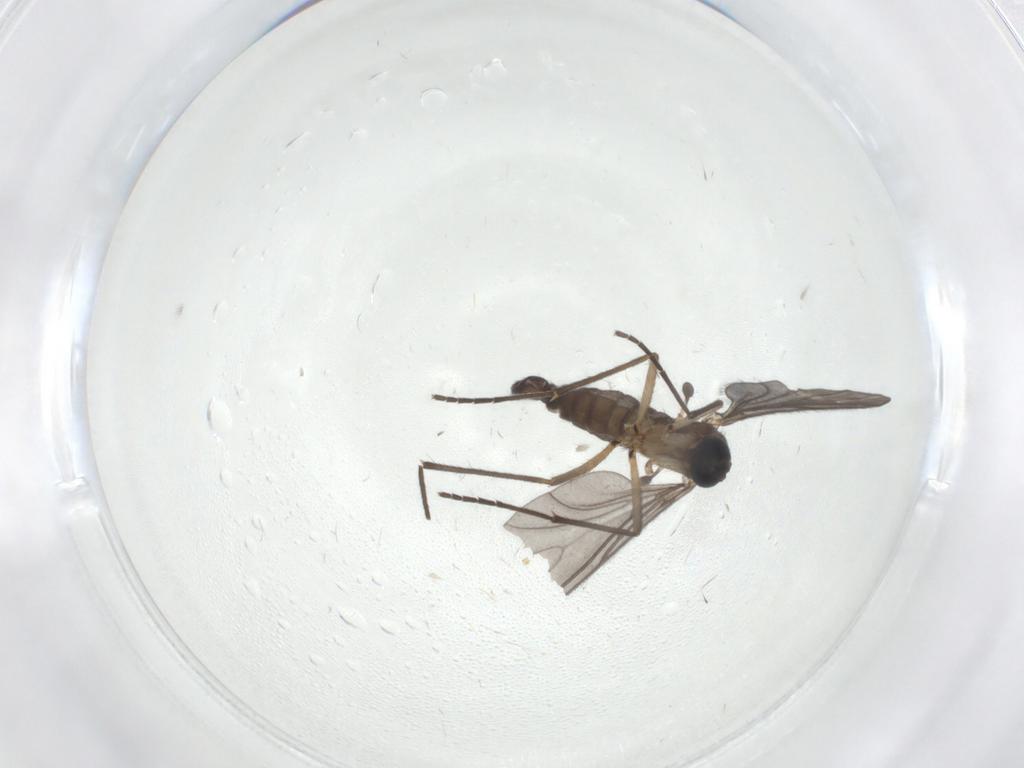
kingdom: Animalia
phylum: Arthropoda
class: Insecta
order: Diptera
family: Sciaridae
